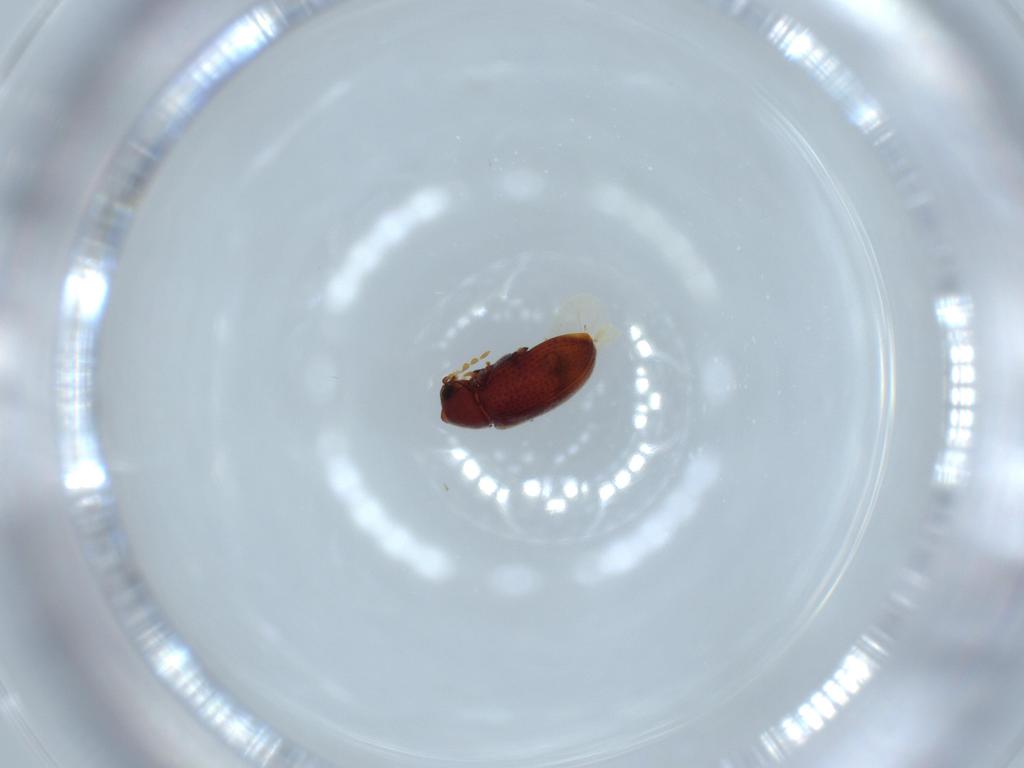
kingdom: Animalia
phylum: Arthropoda
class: Insecta
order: Coleoptera
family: Ptinidae
